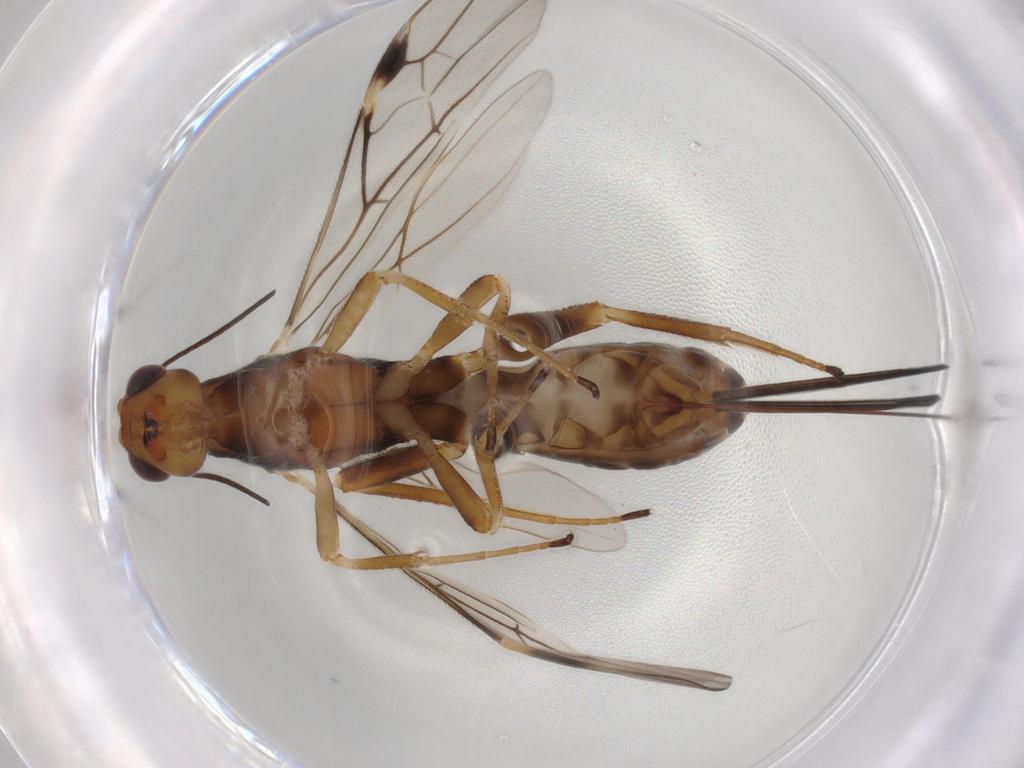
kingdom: Animalia
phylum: Arthropoda
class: Insecta
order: Hymenoptera
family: Braconidae
